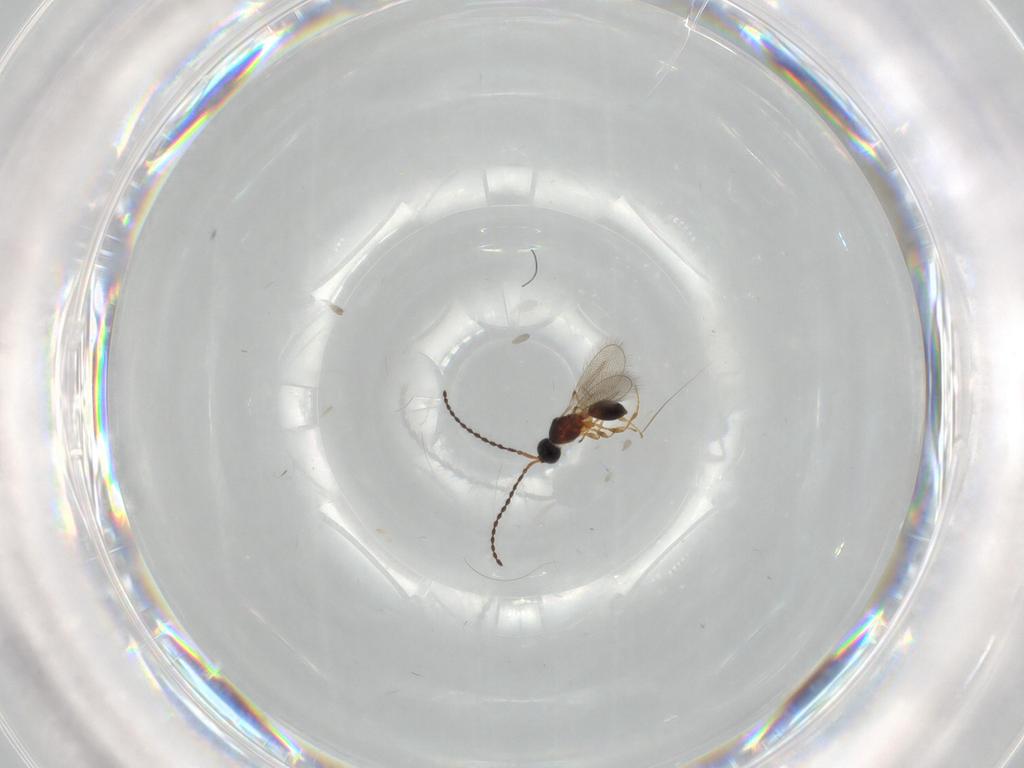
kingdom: Animalia
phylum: Arthropoda
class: Insecta
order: Hymenoptera
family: Diapriidae
